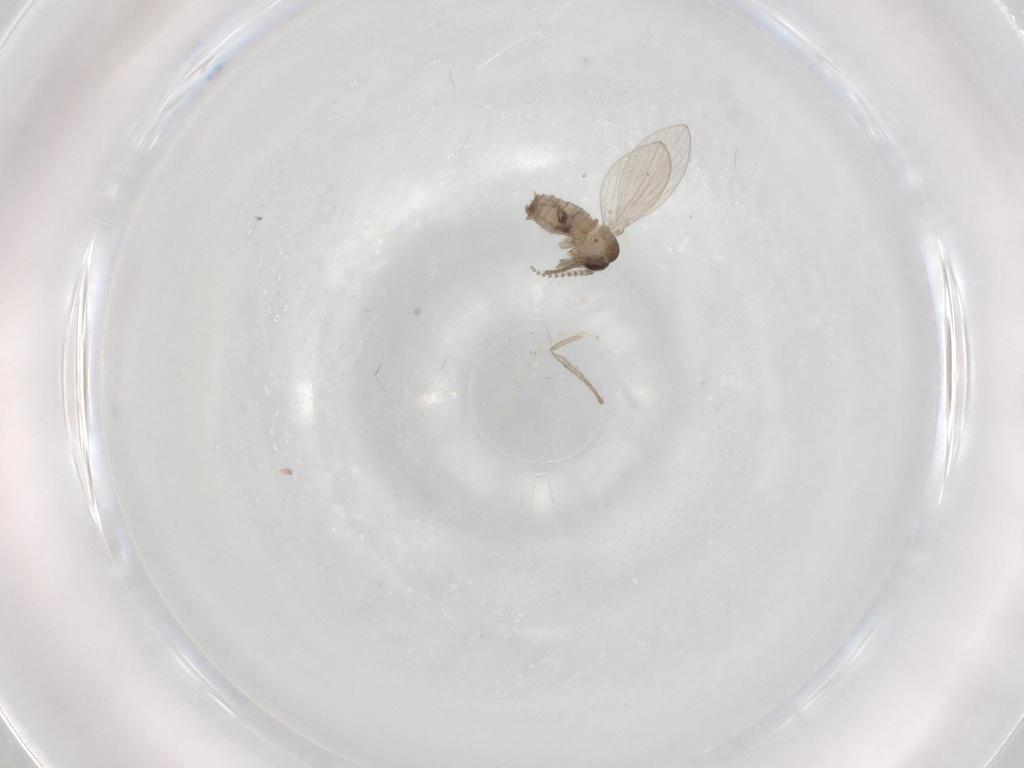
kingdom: Animalia
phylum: Arthropoda
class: Insecta
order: Diptera
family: Psychodidae
